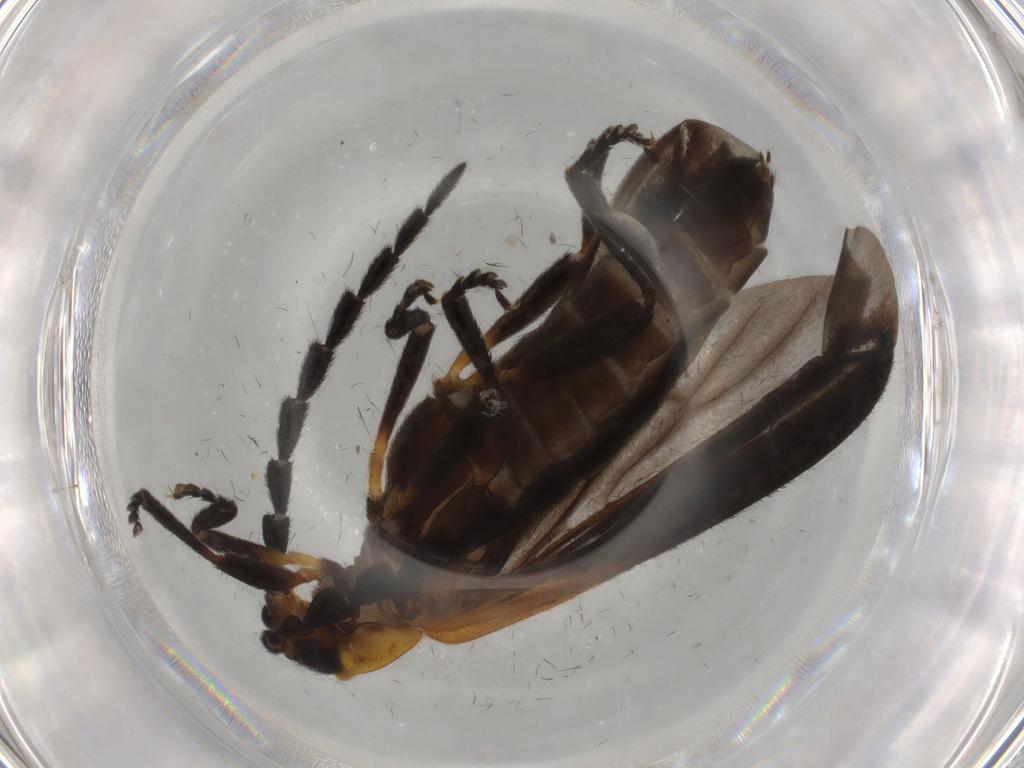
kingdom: Animalia
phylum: Arthropoda
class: Insecta
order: Coleoptera
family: Lycidae
